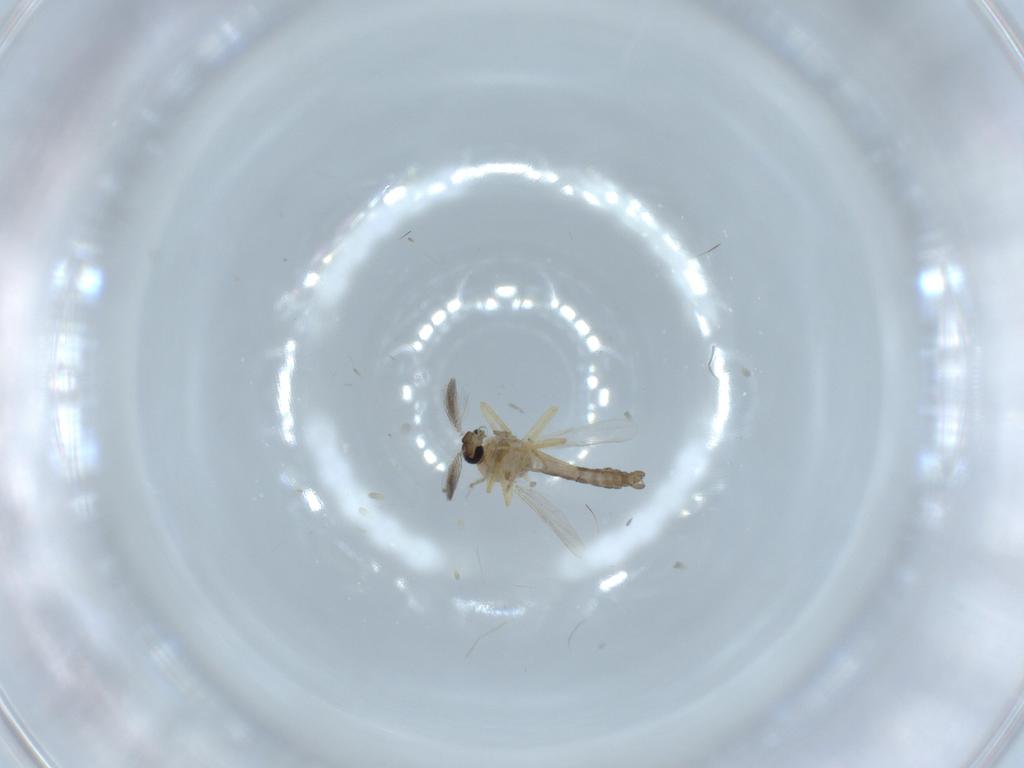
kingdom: Animalia
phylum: Arthropoda
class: Insecta
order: Diptera
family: Ceratopogonidae
